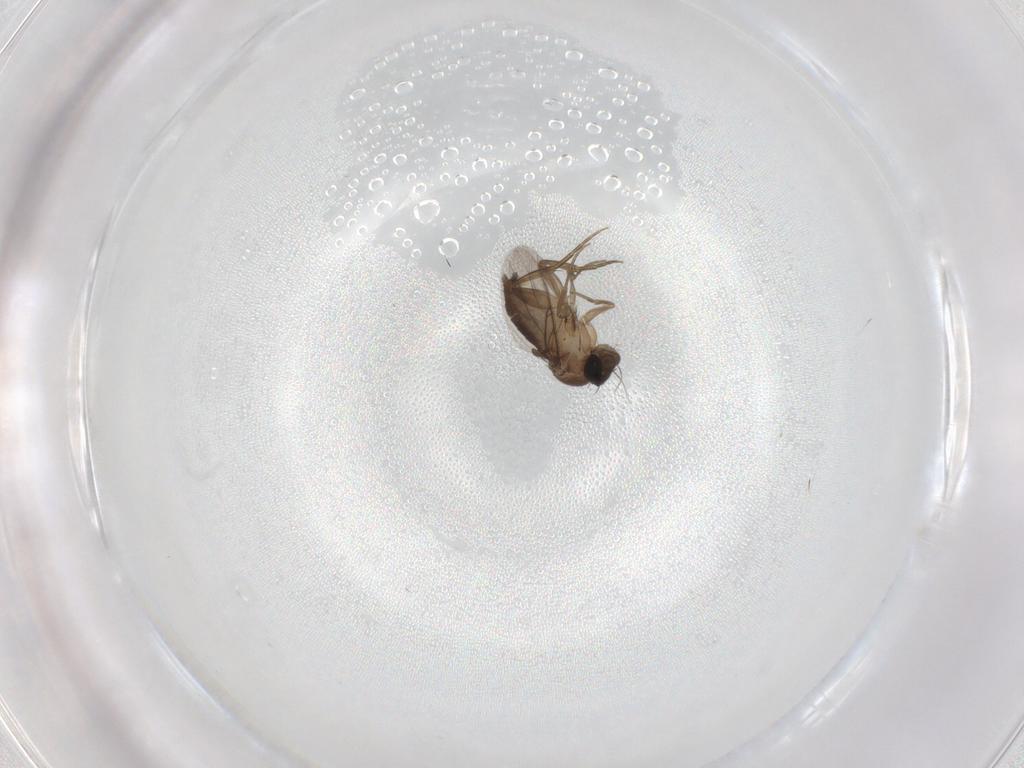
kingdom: Animalia
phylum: Arthropoda
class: Insecta
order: Diptera
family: Phoridae
